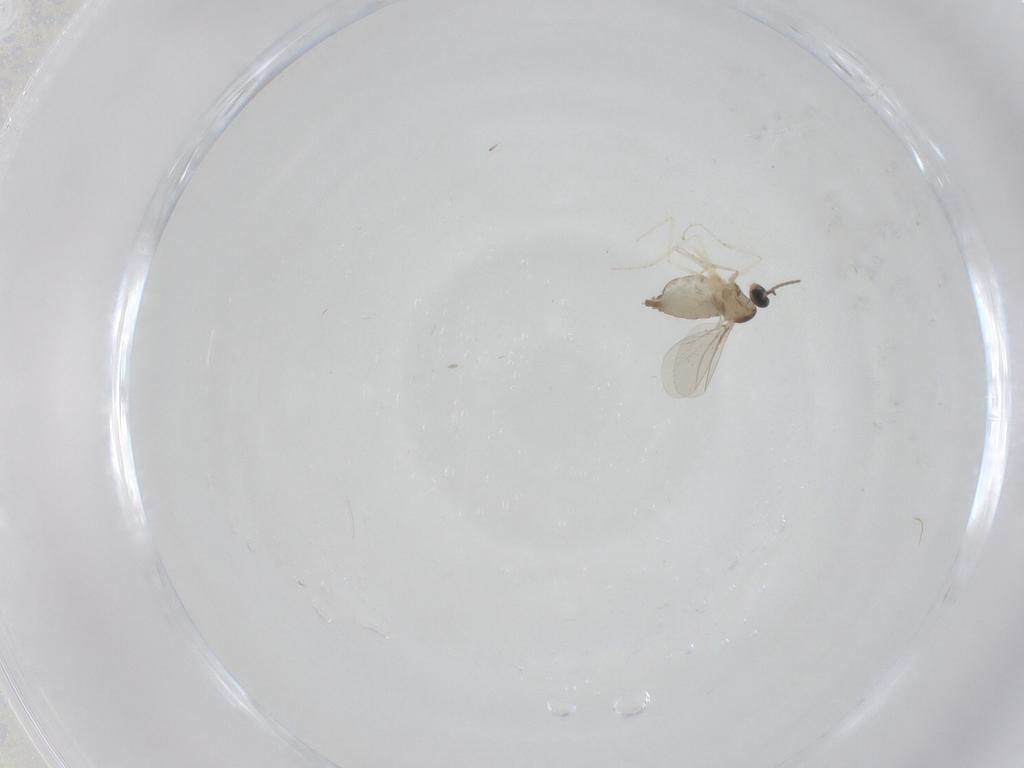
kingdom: Animalia
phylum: Arthropoda
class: Insecta
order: Diptera
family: Cecidomyiidae
